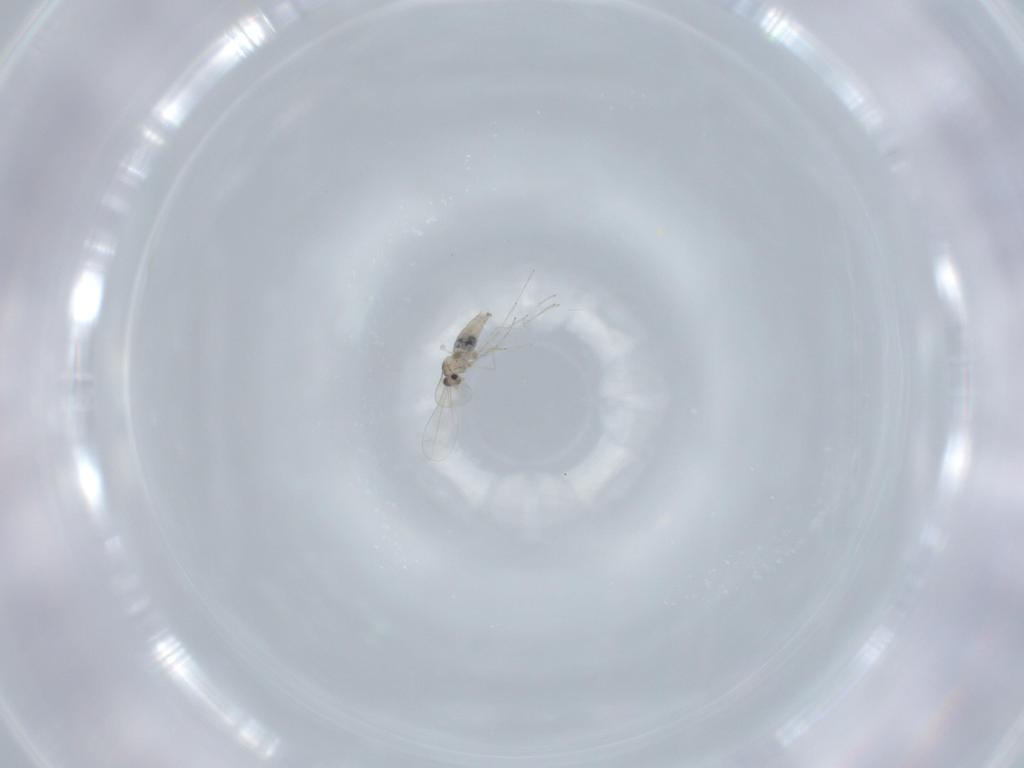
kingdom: Animalia
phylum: Arthropoda
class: Insecta
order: Diptera
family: Cecidomyiidae
